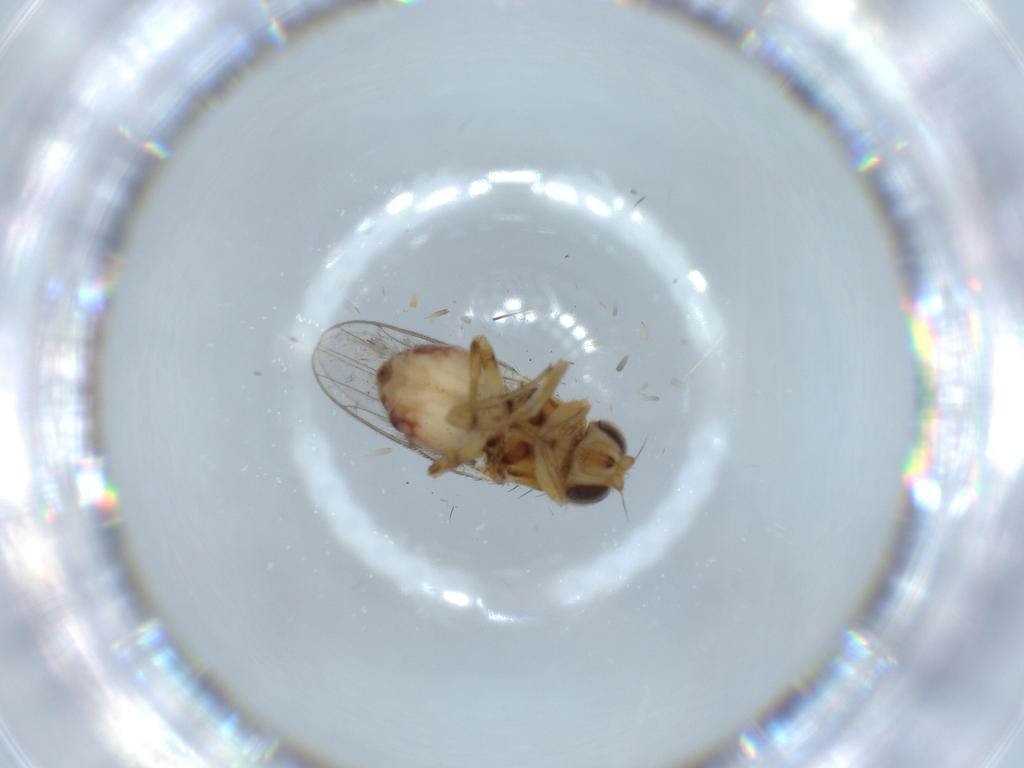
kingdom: Animalia
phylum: Arthropoda
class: Insecta
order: Diptera
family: Chloropidae
